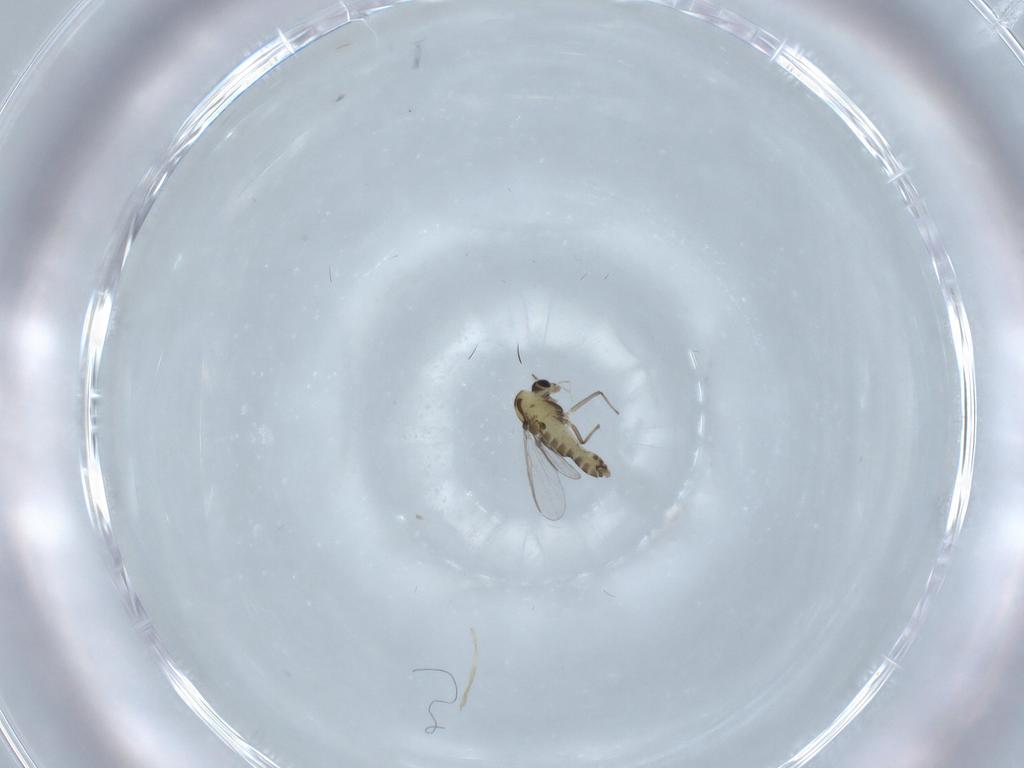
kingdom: Animalia
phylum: Arthropoda
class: Insecta
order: Diptera
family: Chironomidae
